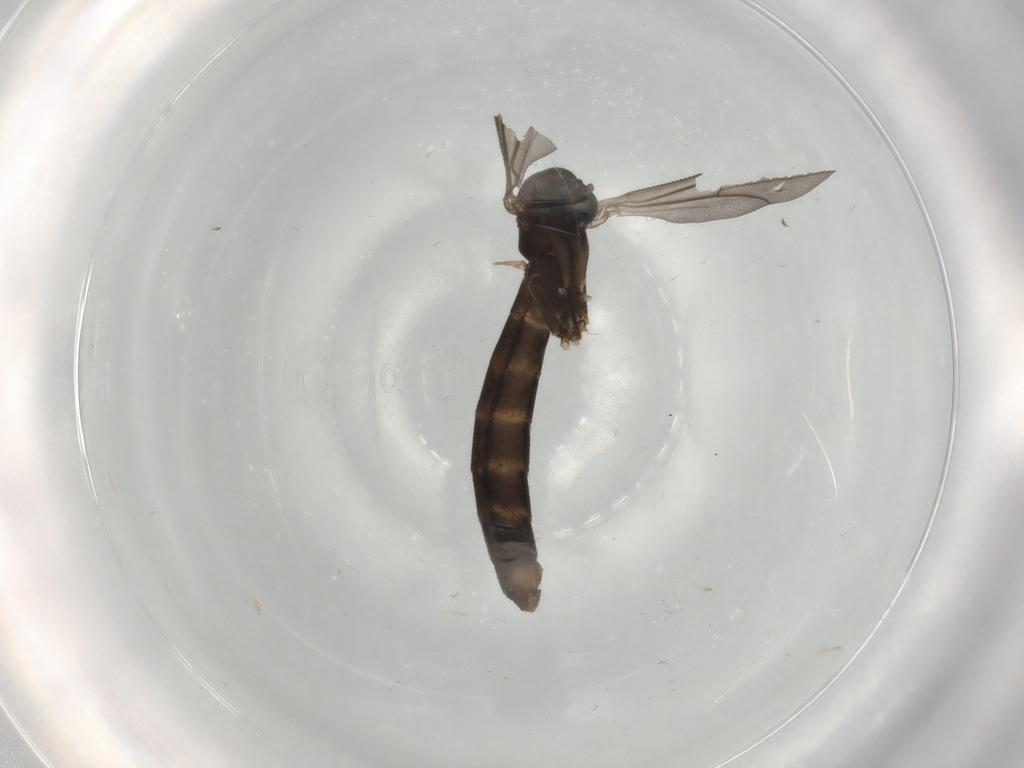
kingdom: Animalia
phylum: Arthropoda
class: Insecta
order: Diptera
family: Keroplatidae
